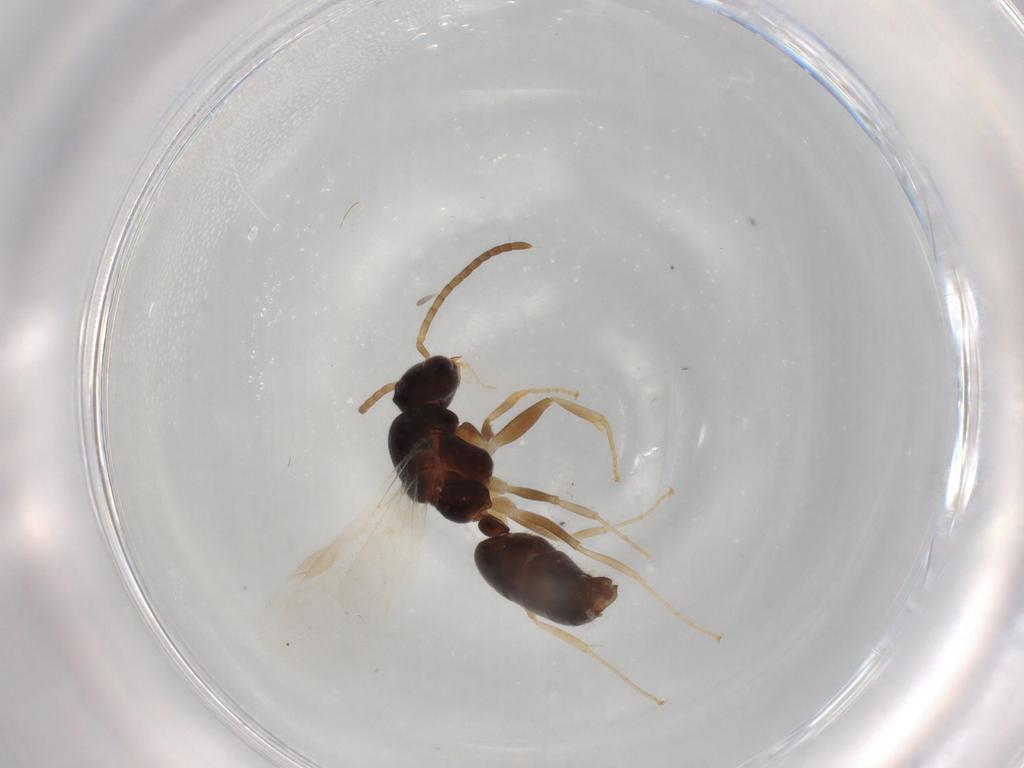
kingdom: Animalia
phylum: Arthropoda
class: Insecta
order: Hymenoptera
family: Formicidae
